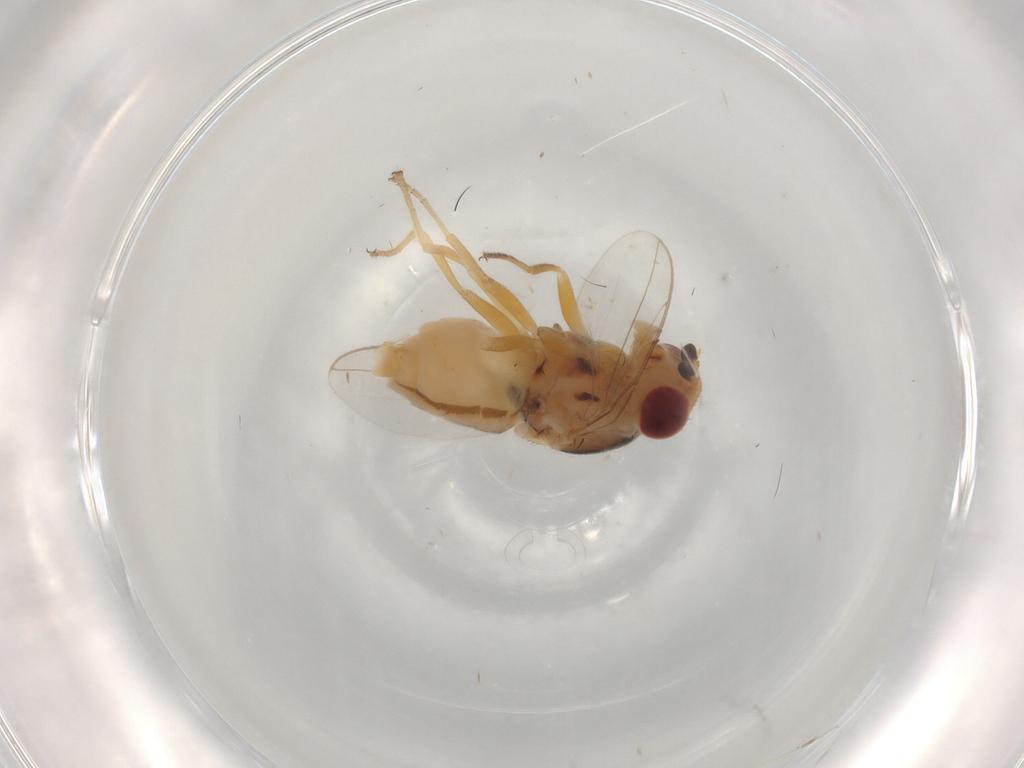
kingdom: Animalia
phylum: Arthropoda
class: Insecta
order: Diptera
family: Chloropidae
